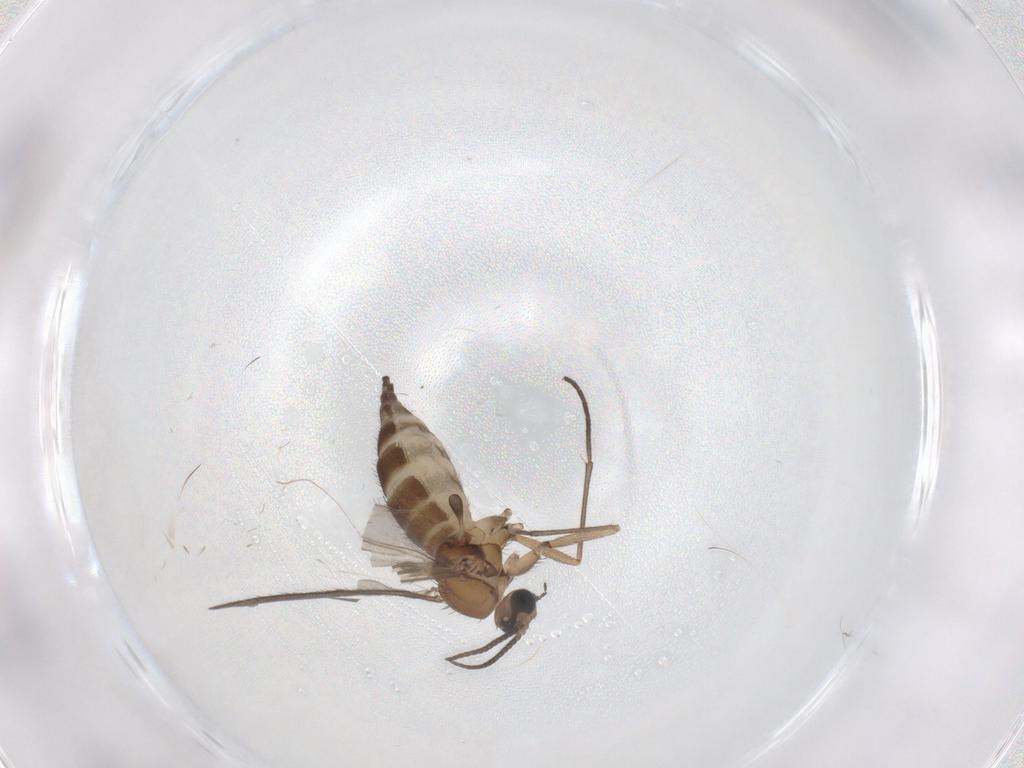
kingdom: Animalia
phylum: Arthropoda
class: Insecta
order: Diptera
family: Sciaridae
